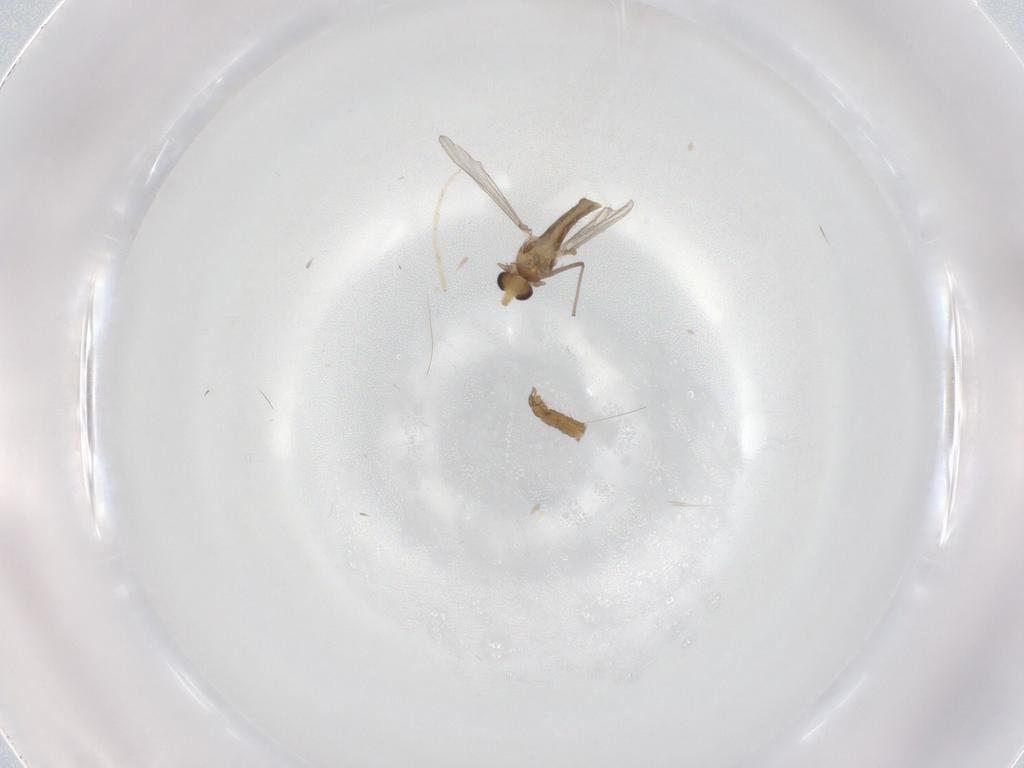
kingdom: Animalia
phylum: Arthropoda
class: Insecta
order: Diptera
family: Chironomidae
